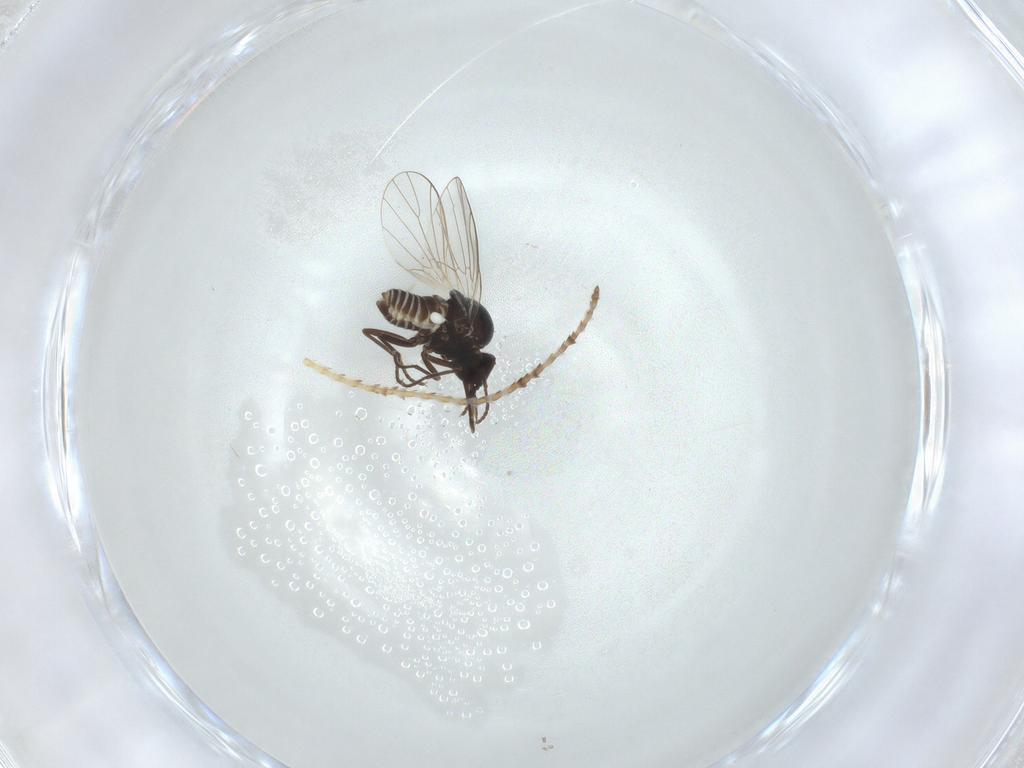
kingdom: Animalia
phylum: Arthropoda
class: Insecta
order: Diptera
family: Bombyliidae
